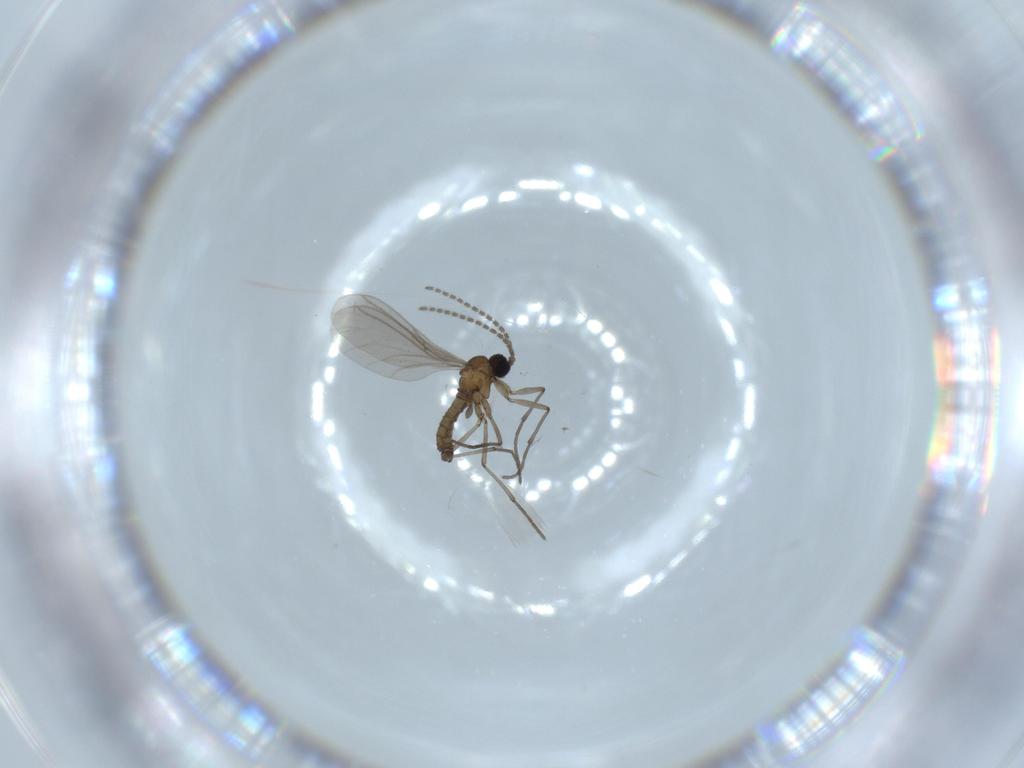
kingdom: Animalia
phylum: Arthropoda
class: Insecta
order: Diptera
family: Sciaridae
